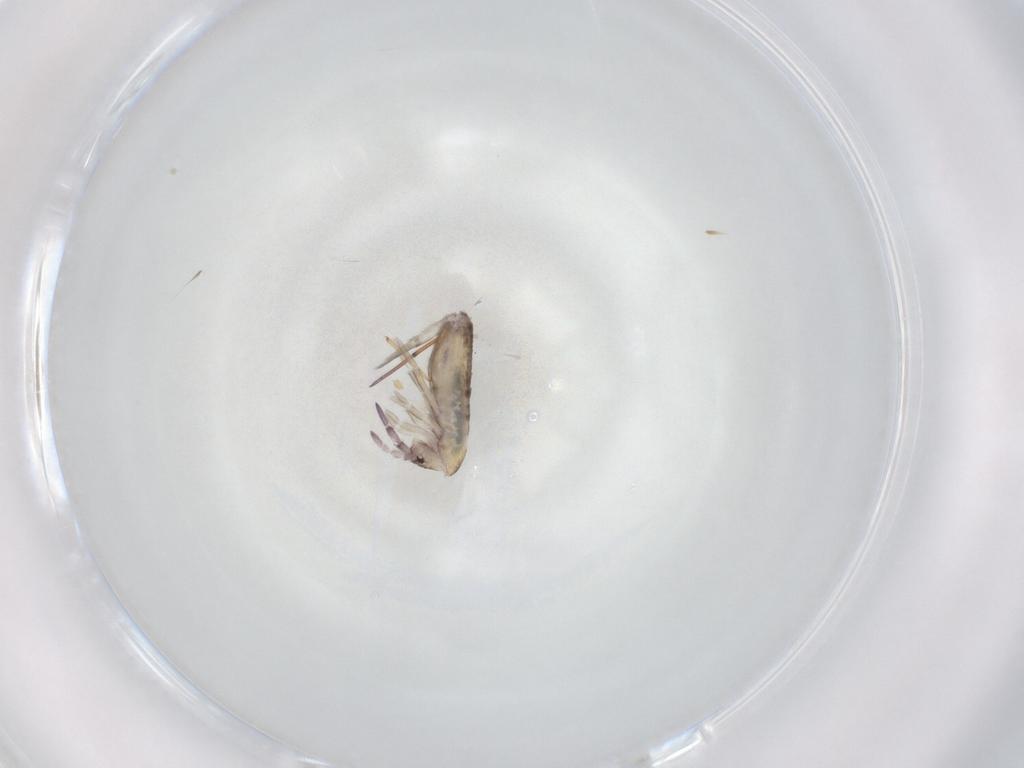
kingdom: Animalia
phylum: Arthropoda
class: Collembola
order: Entomobryomorpha
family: Entomobryidae
